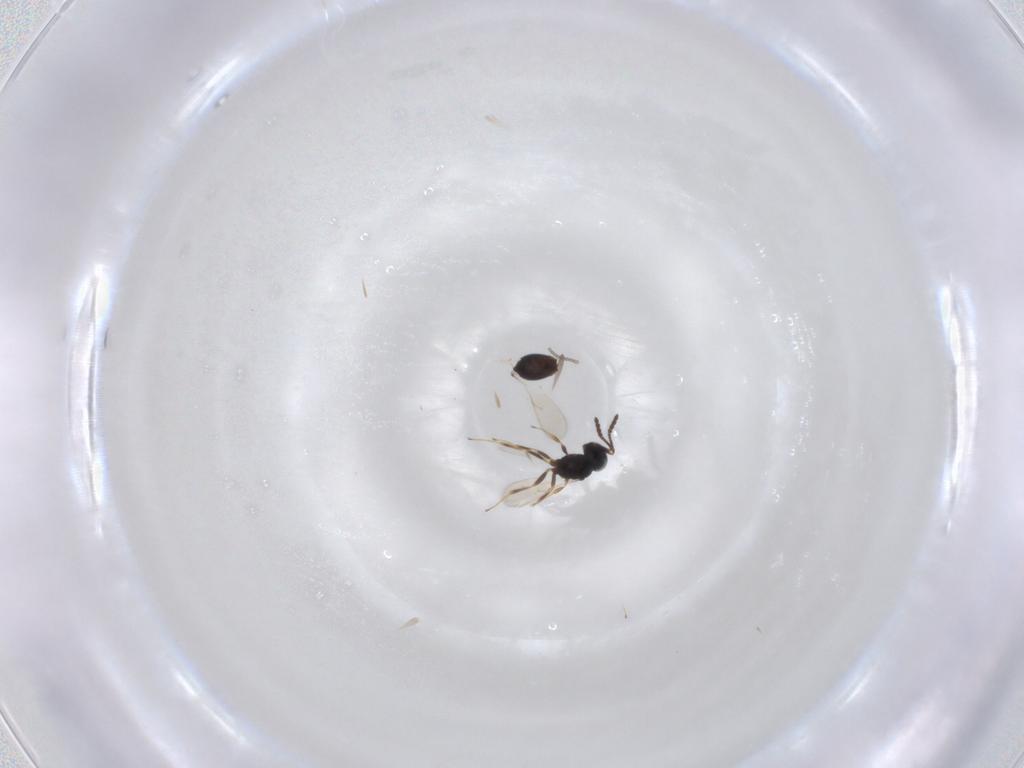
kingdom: Animalia
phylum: Arthropoda
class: Insecta
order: Hymenoptera
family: Scelionidae
